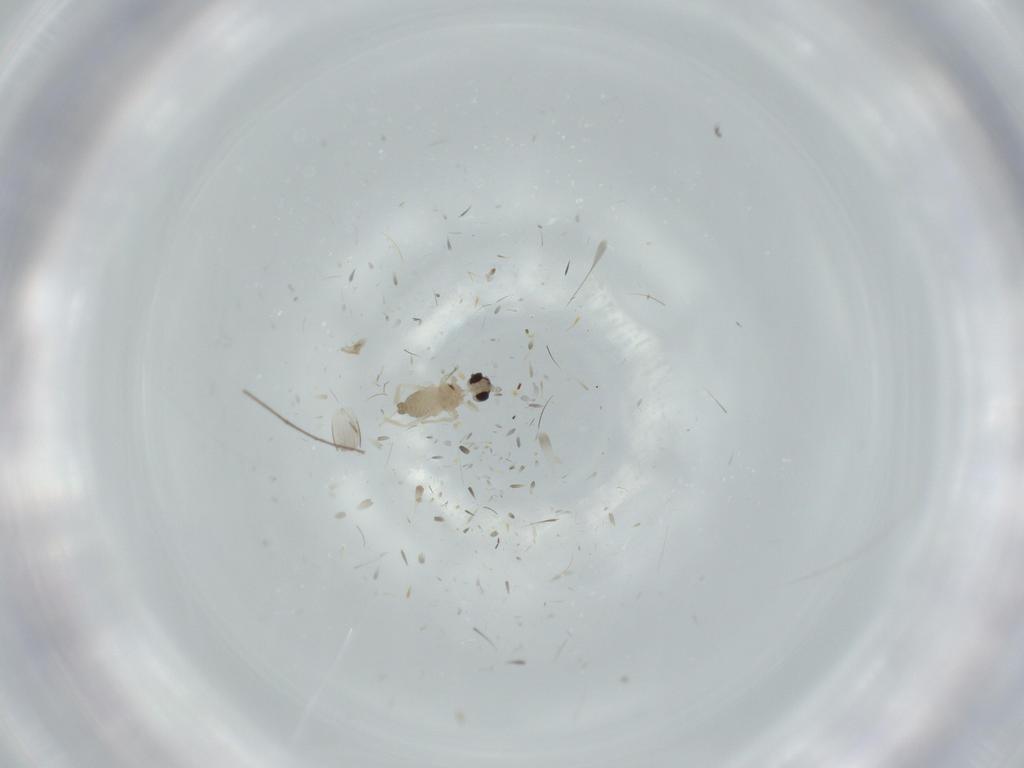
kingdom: Animalia
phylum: Arthropoda
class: Insecta
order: Diptera
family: Cecidomyiidae
